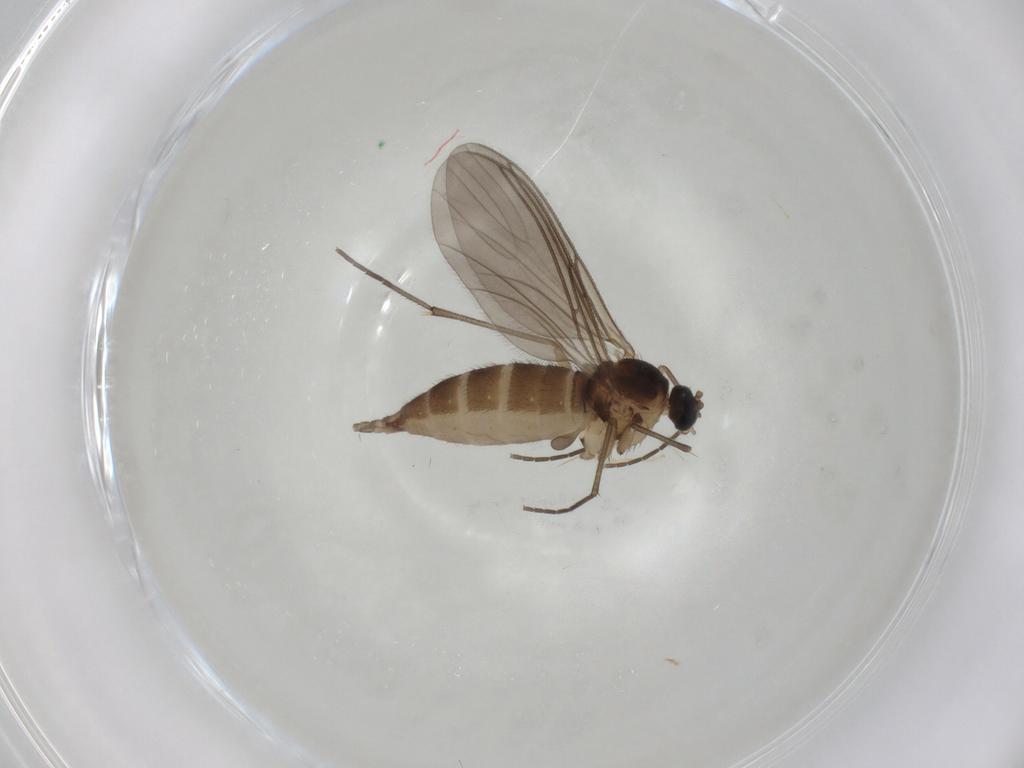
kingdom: Animalia
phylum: Arthropoda
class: Insecta
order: Diptera
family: Sciaridae
